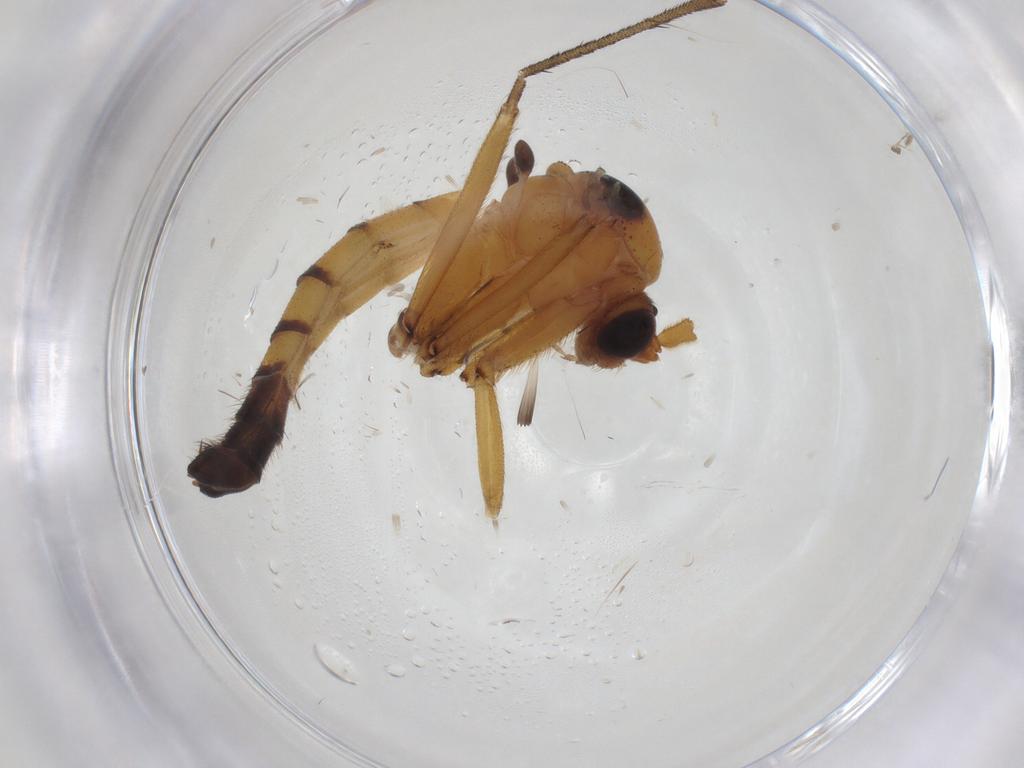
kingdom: Animalia
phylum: Arthropoda
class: Insecta
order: Diptera
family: Mycetophilidae
